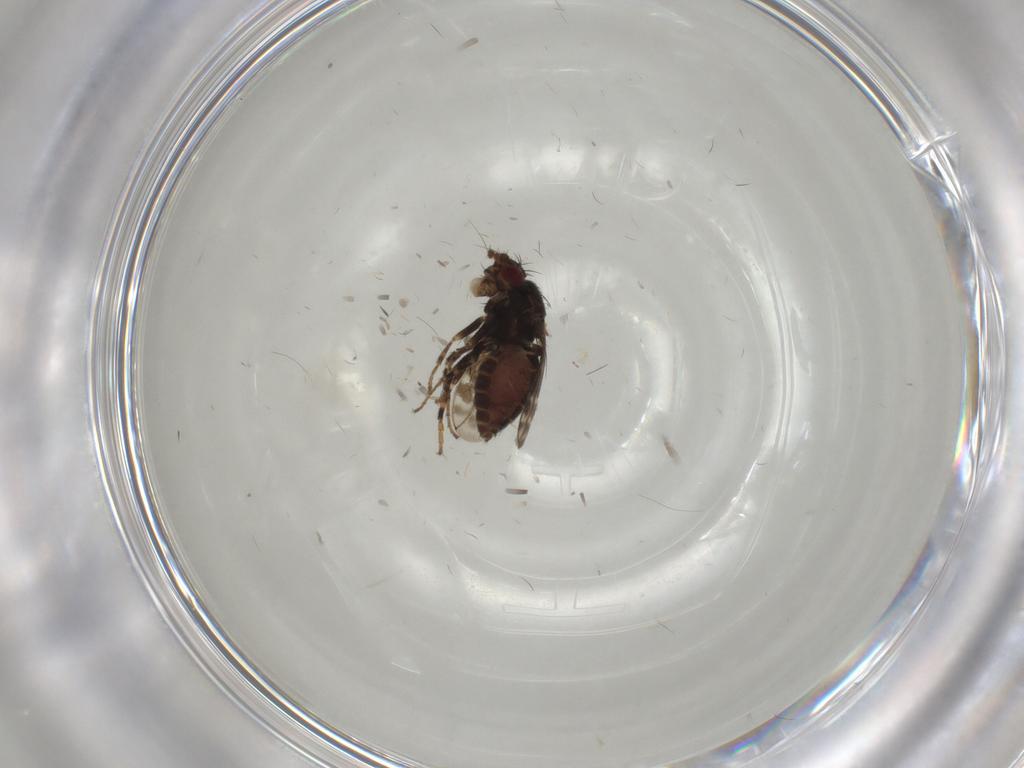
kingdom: Animalia
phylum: Arthropoda
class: Insecta
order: Diptera
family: Sphaeroceridae
